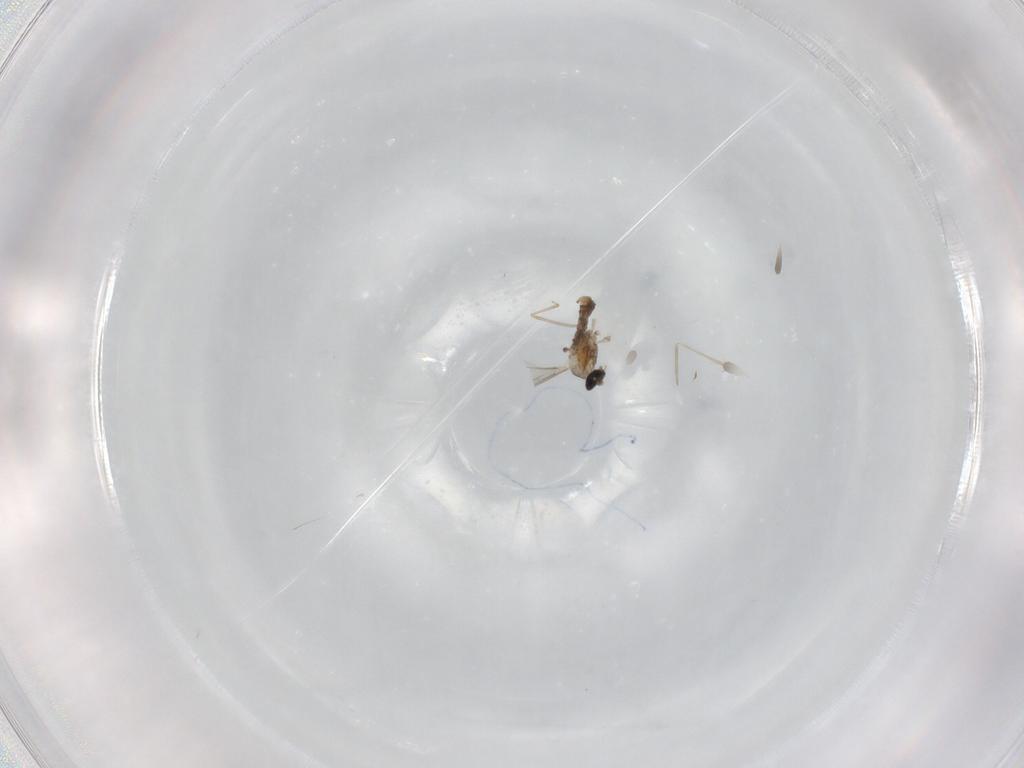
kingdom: Animalia
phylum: Arthropoda
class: Insecta
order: Diptera
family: Cecidomyiidae
